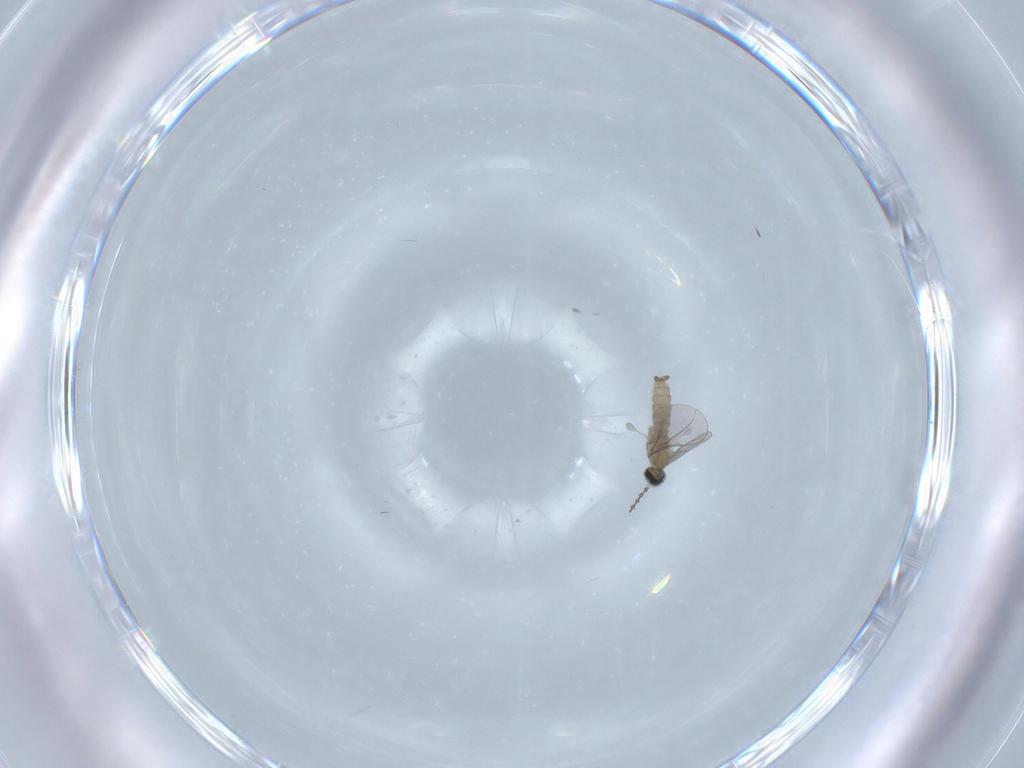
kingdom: Animalia
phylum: Arthropoda
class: Insecta
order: Diptera
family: Cecidomyiidae
